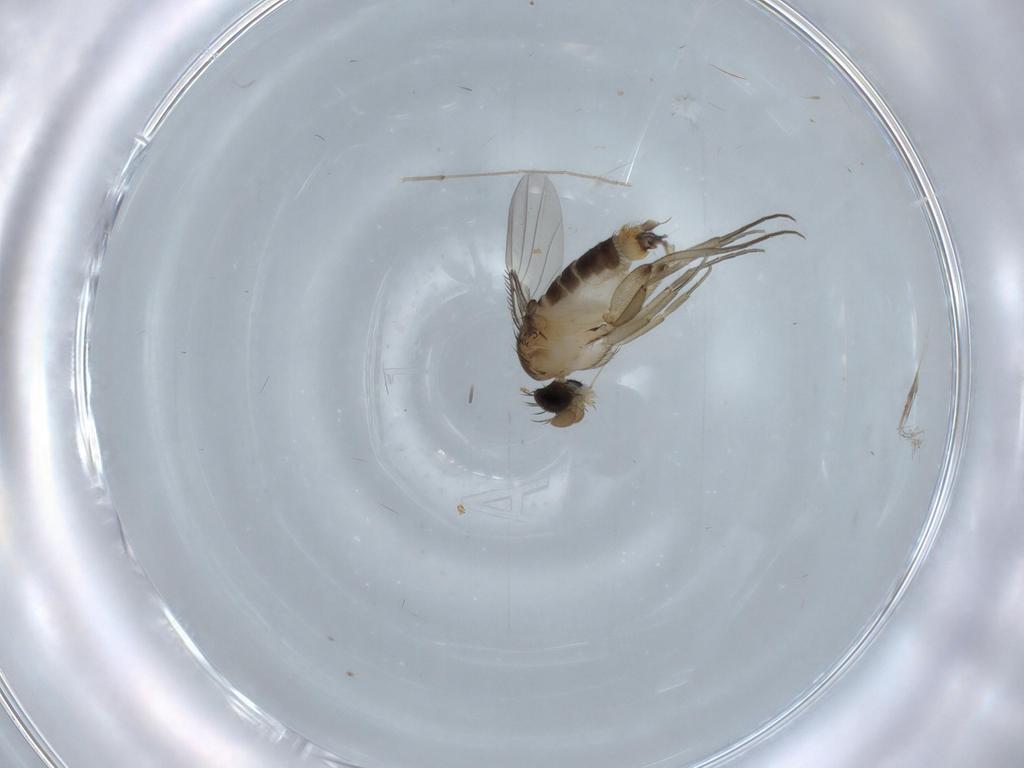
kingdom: Animalia
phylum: Arthropoda
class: Insecta
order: Diptera
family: Phoridae
